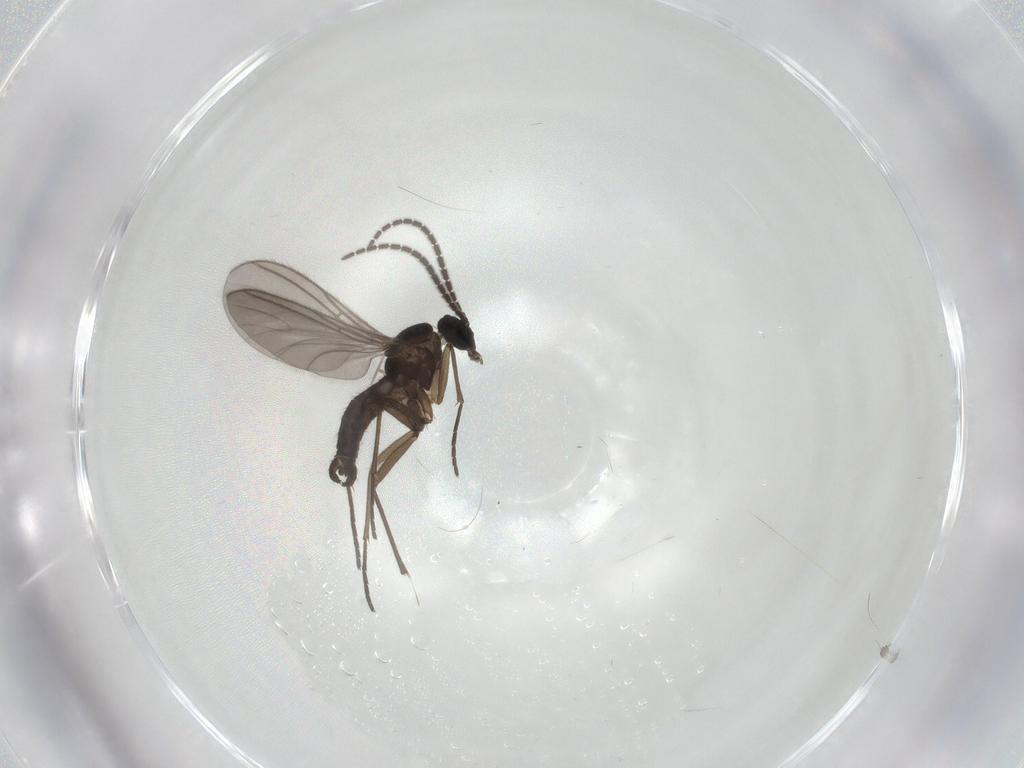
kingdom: Animalia
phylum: Arthropoda
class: Insecta
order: Diptera
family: Sciaridae
